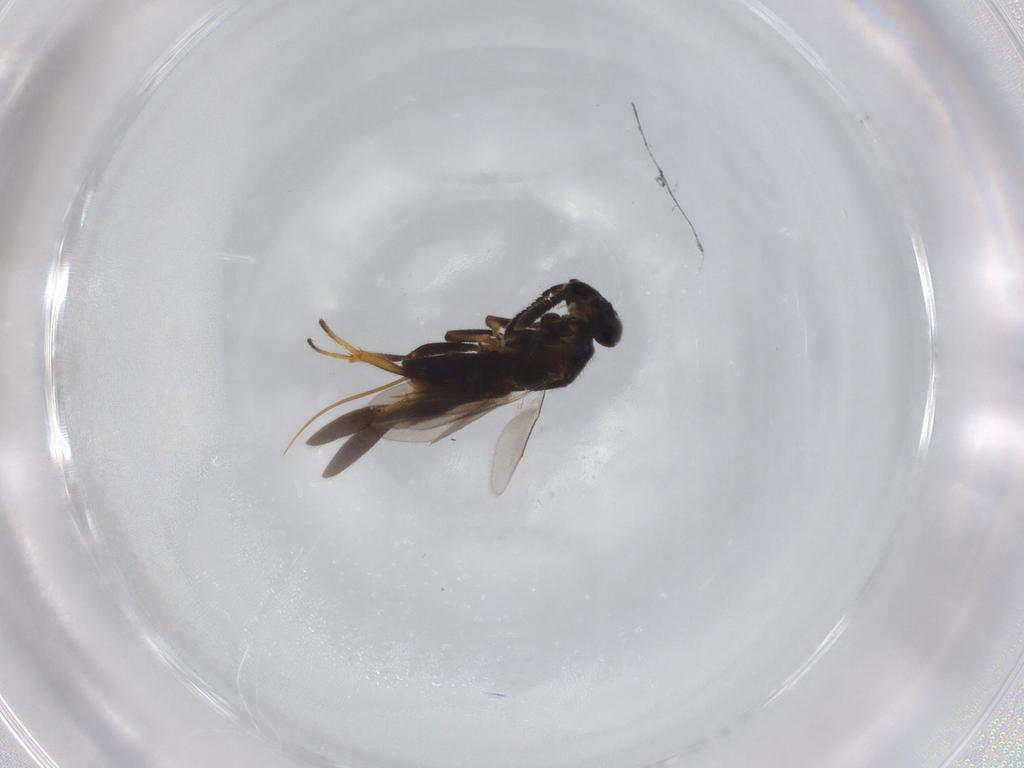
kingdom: Animalia
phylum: Arthropoda
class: Insecta
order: Hymenoptera
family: Mymaridae
